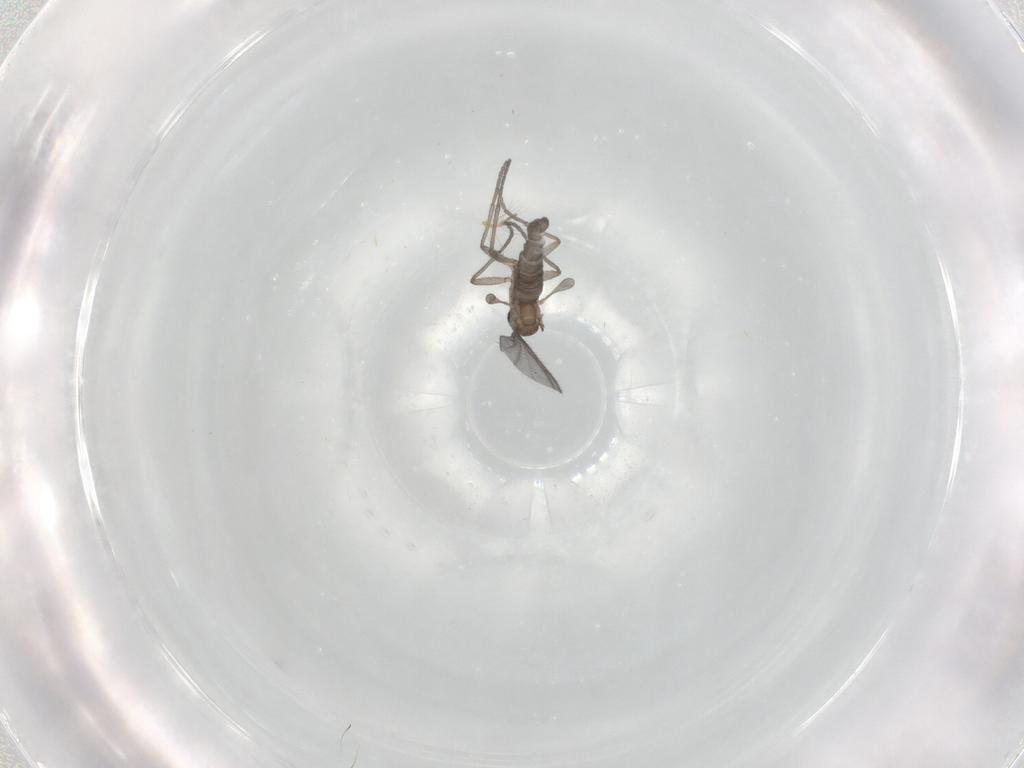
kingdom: Animalia
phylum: Arthropoda
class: Insecta
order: Diptera
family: Sciaridae
